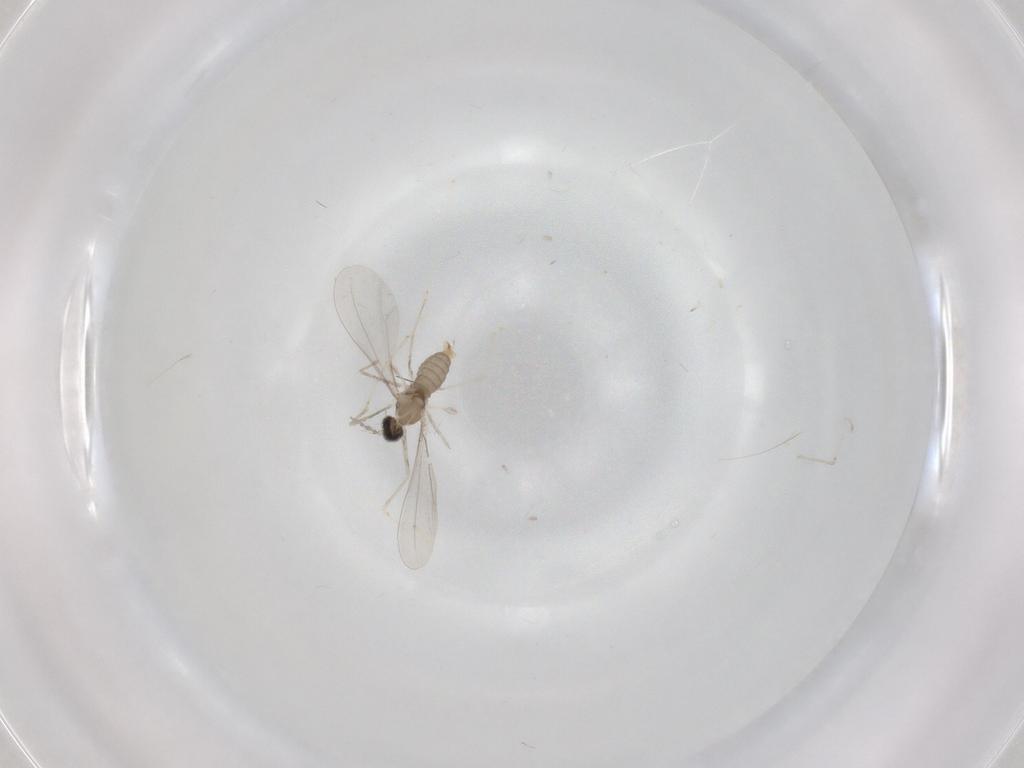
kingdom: Animalia
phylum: Arthropoda
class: Insecta
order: Diptera
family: Cecidomyiidae
